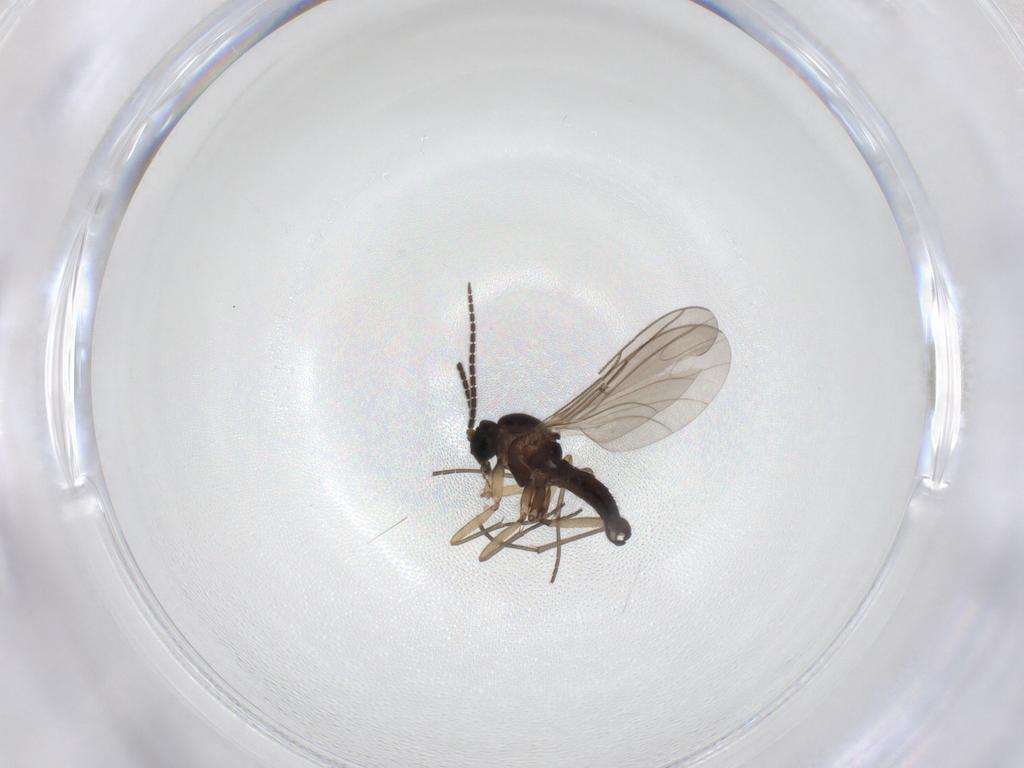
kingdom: Animalia
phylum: Arthropoda
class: Insecta
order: Diptera
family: Sciaridae
